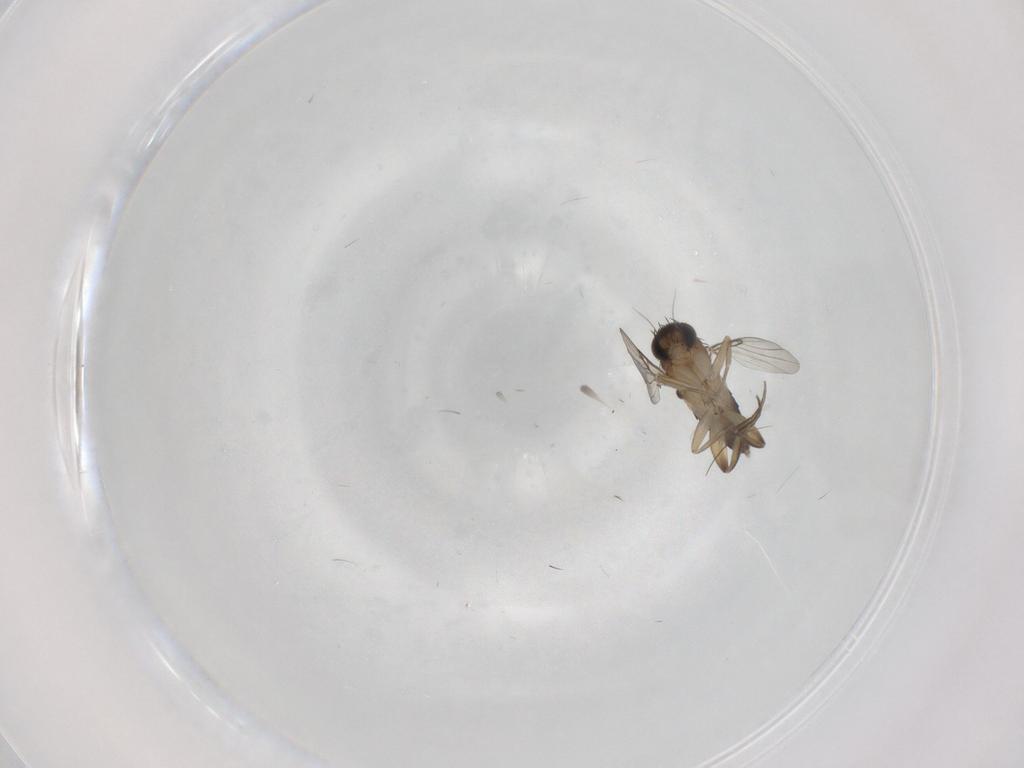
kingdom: Animalia
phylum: Arthropoda
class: Insecta
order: Diptera
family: Phoridae
